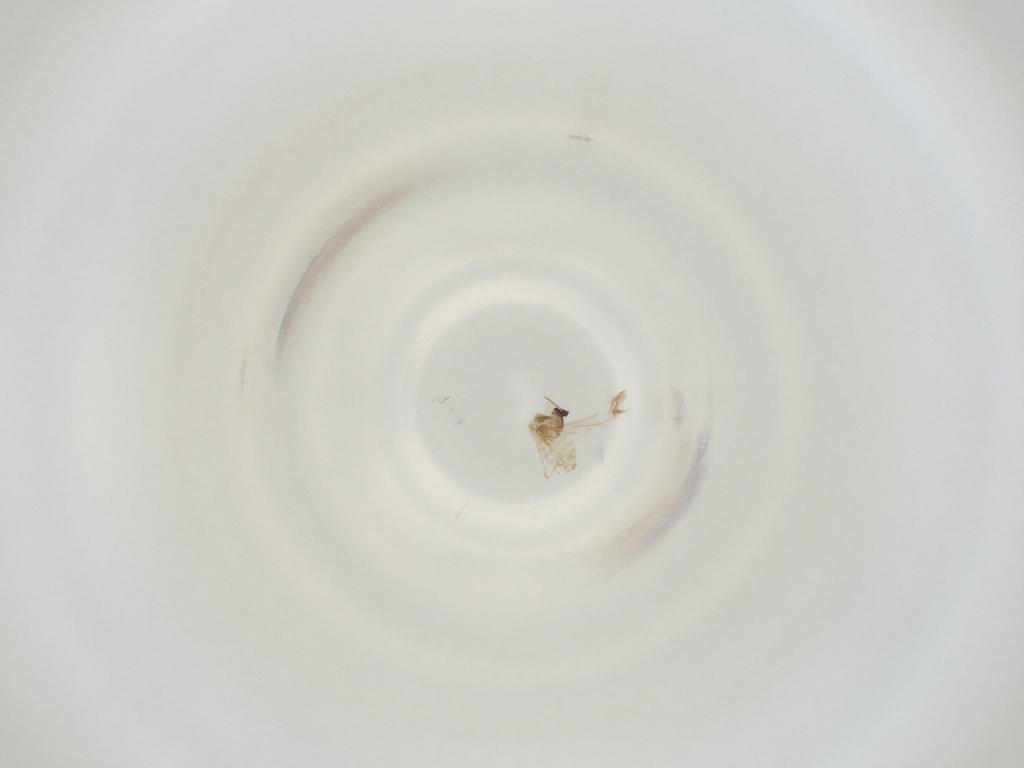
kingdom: Animalia
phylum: Arthropoda
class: Insecta
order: Diptera
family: Cecidomyiidae
